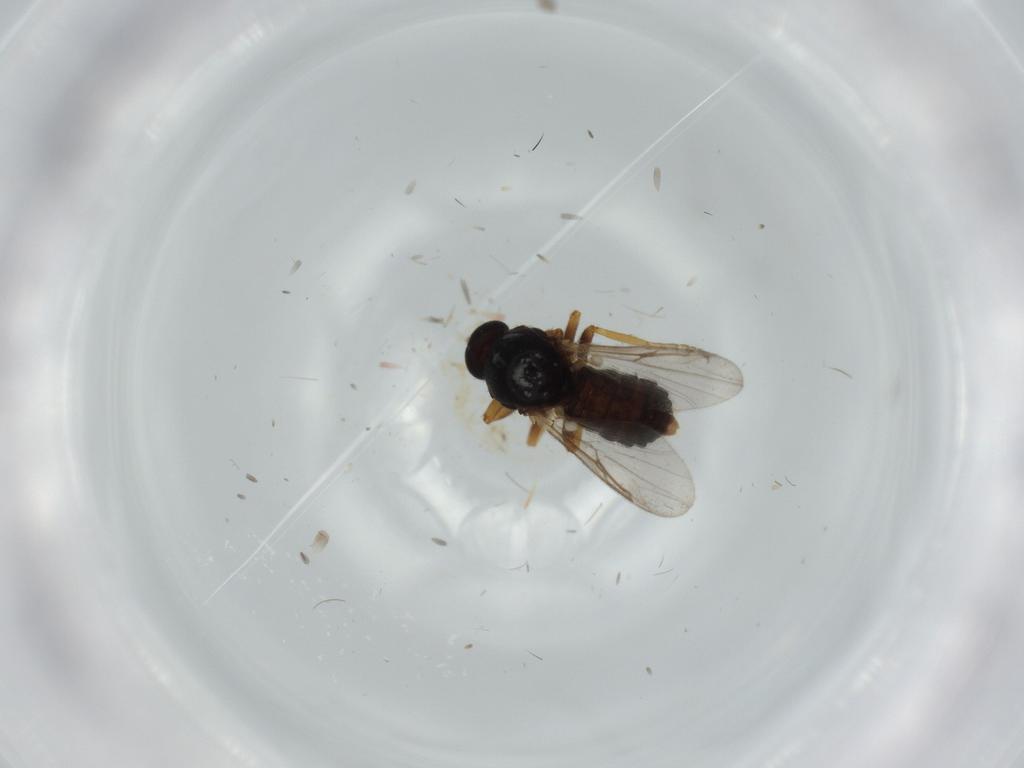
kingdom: Animalia
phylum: Arthropoda
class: Insecta
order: Diptera
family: Ceratopogonidae
